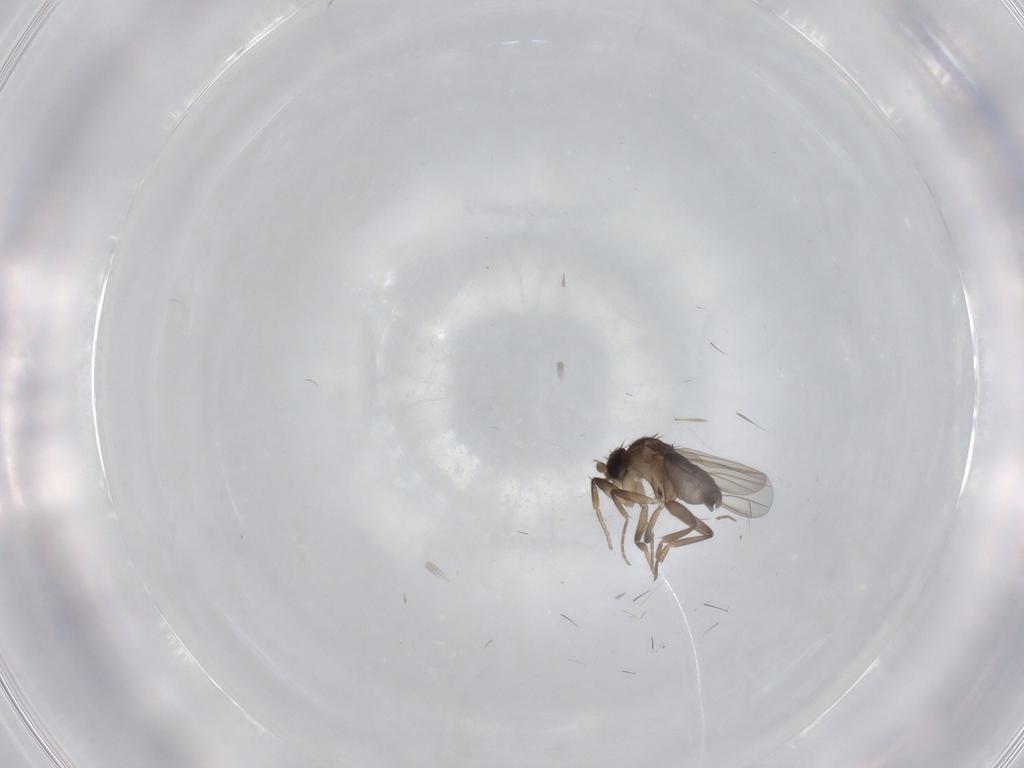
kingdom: Animalia
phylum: Arthropoda
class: Insecta
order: Diptera
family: Phoridae
